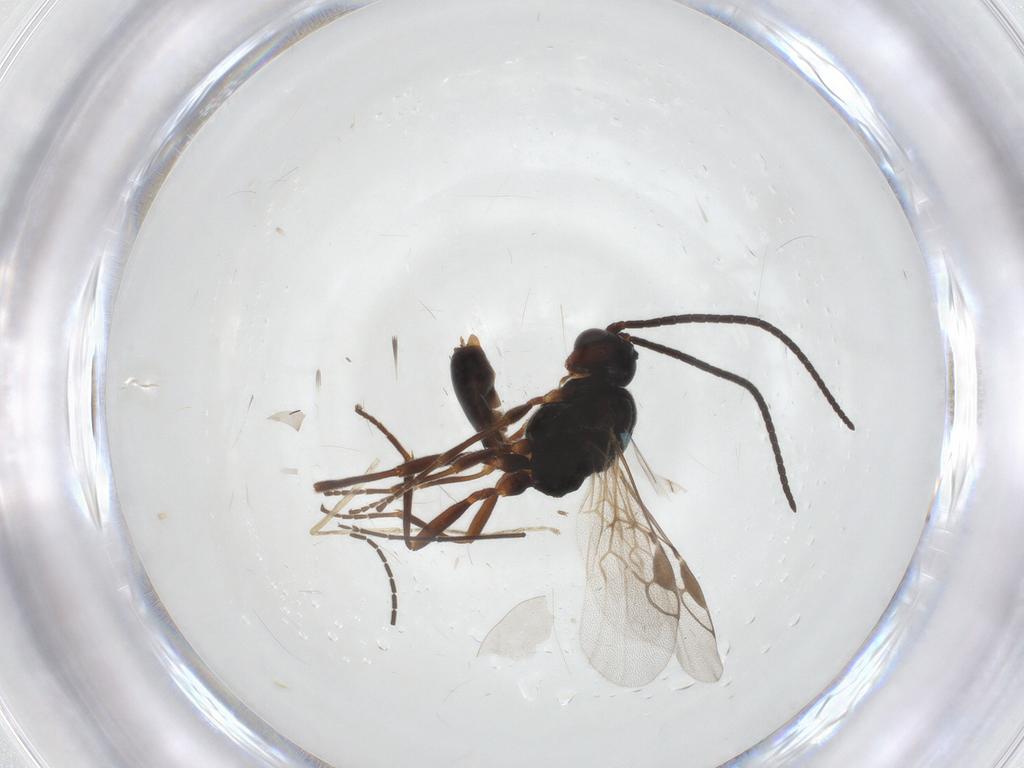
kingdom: Animalia
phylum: Arthropoda
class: Insecta
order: Hymenoptera
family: Braconidae
